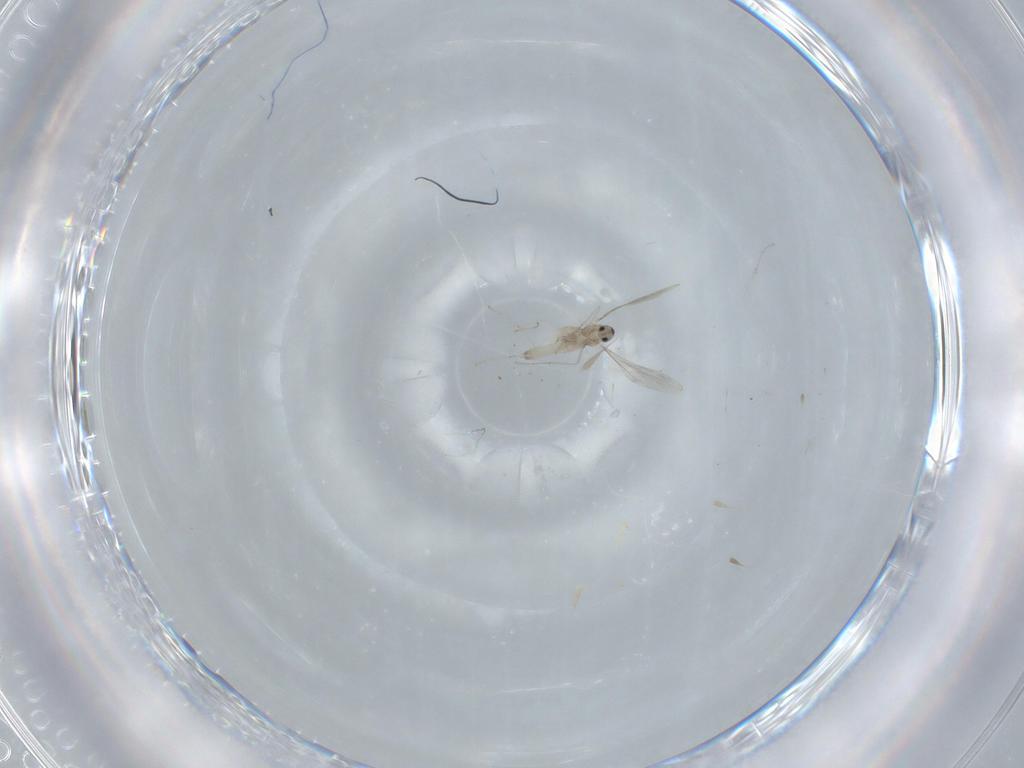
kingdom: Animalia
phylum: Arthropoda
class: Insecta
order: Diptera
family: Cecidomyiidae
